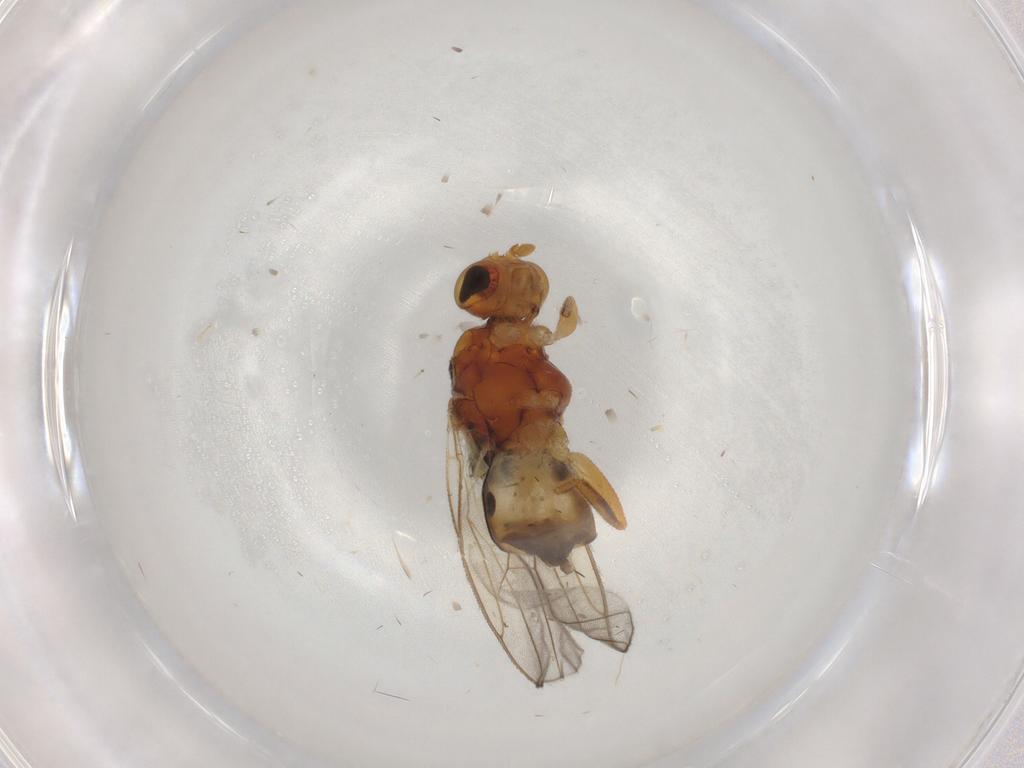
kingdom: Animalia
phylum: Arthropoda
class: Insecta
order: Diptera
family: Chloropidae
